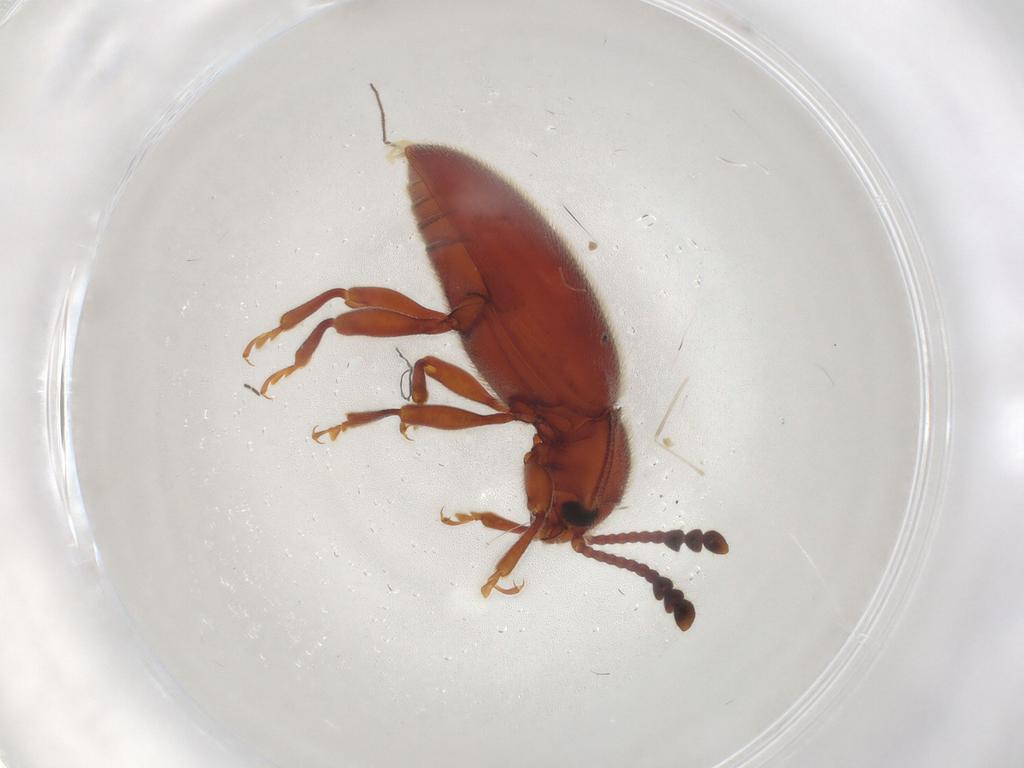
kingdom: Animalia
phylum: Arthropoda
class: Insecta
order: Coleoptera
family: Endomychidae
